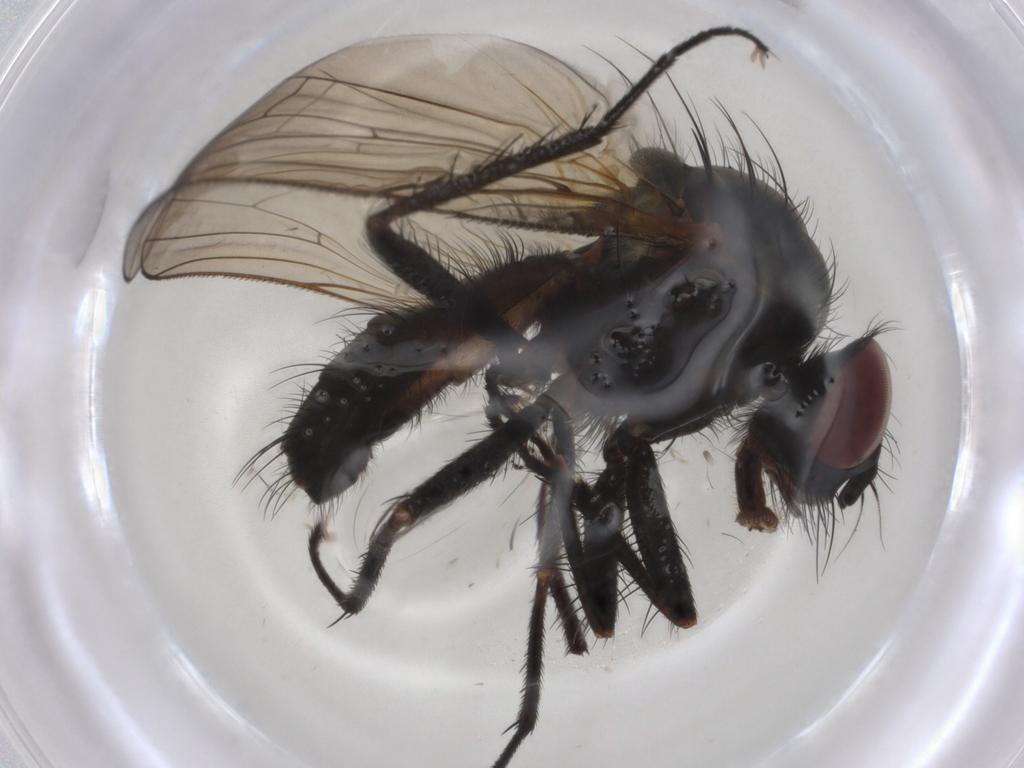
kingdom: Animalia
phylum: Arthropoda
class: Insecta
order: Diptera
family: Anthomyiidae
